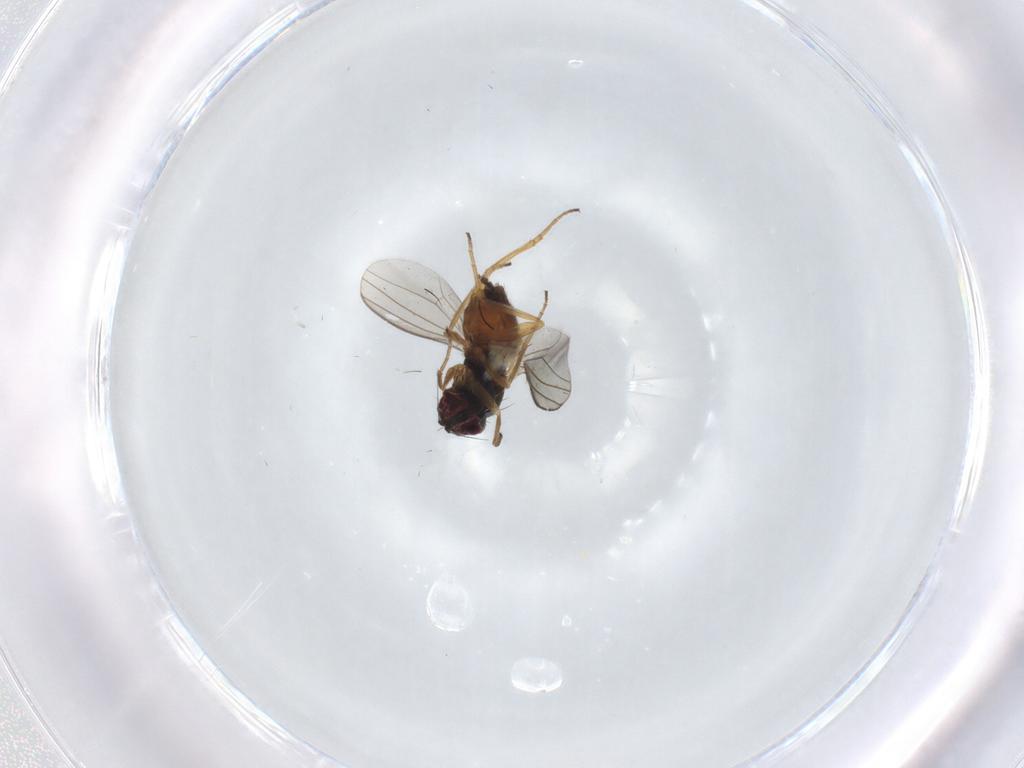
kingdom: Animalia
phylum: Arthropoda
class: Insecta
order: Diptera
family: Dolichopodidae
